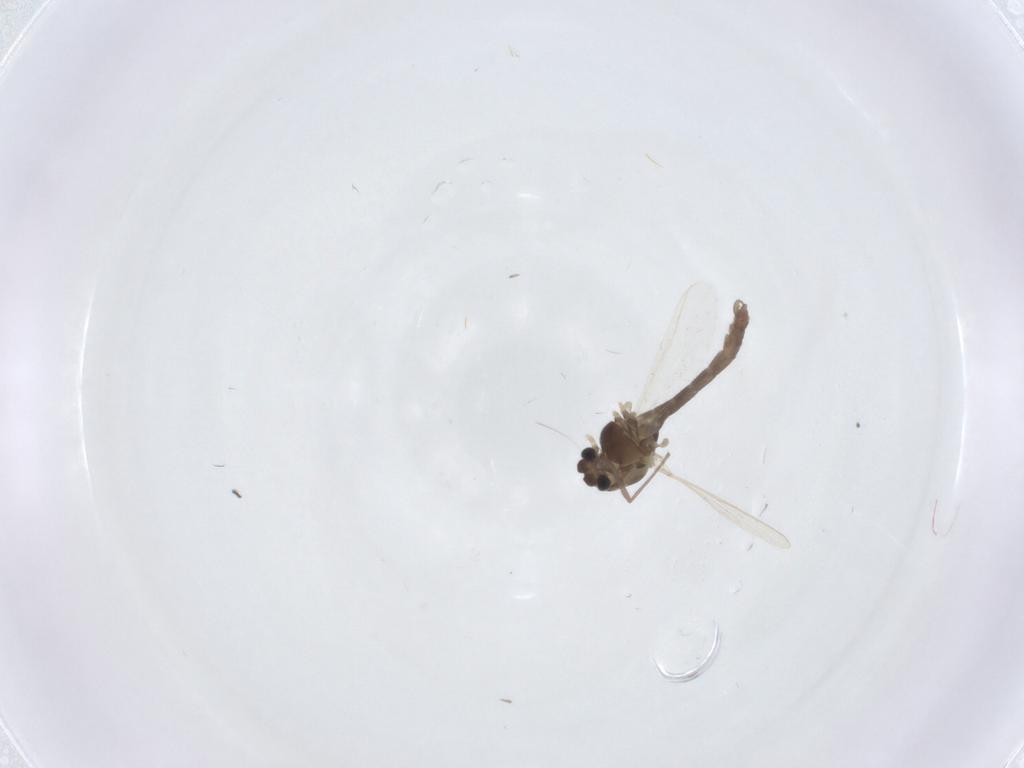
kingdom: Animalia
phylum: Arthropoda
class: Insecta
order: Diptera
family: Chironomidae
